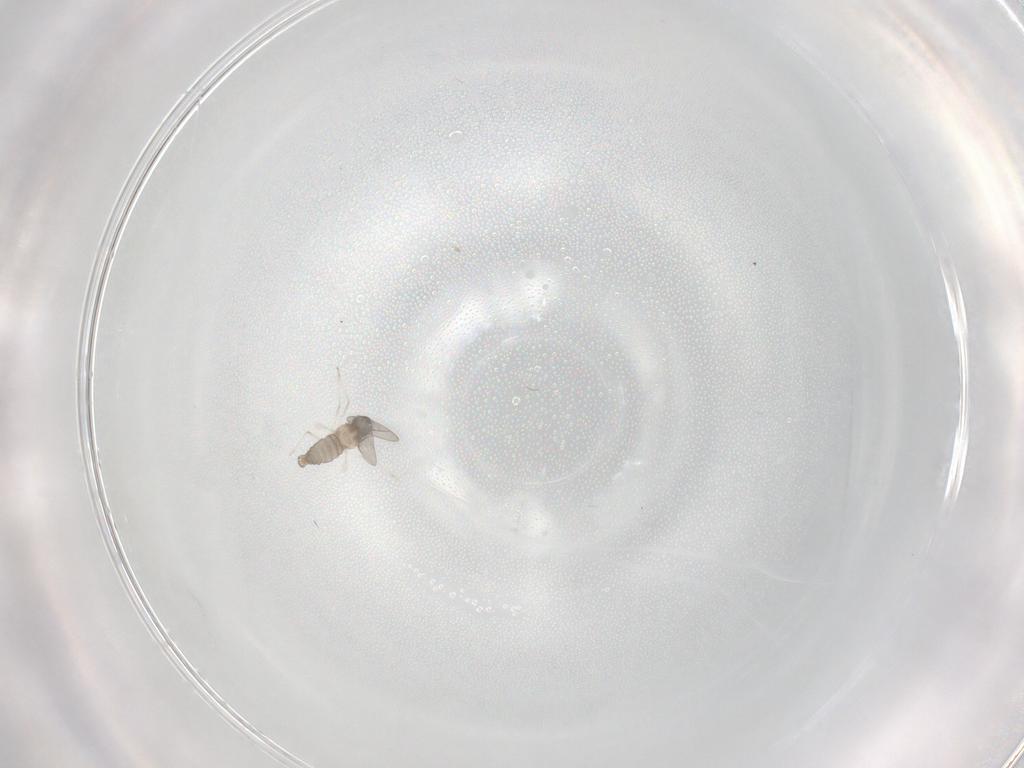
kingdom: Animalia
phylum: Arthropoda
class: Insecta
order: Diptera
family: Cecidomyiidae
